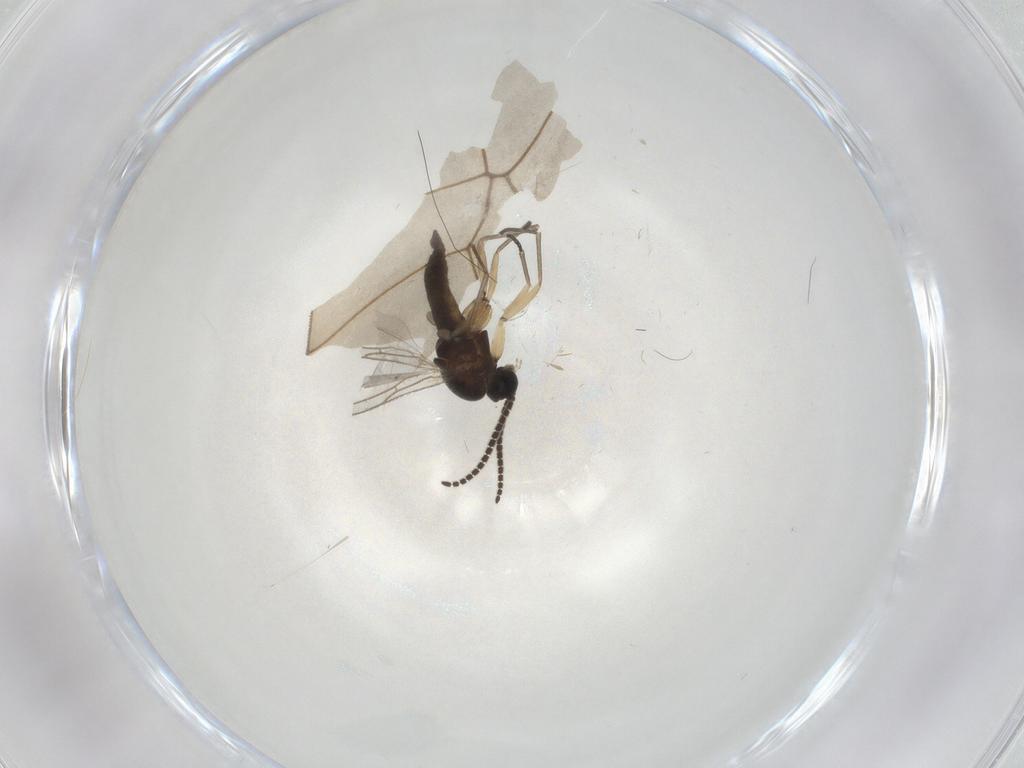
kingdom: Animalia
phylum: Arthropoda
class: Insecta
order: Diptera
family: Sciaridae
